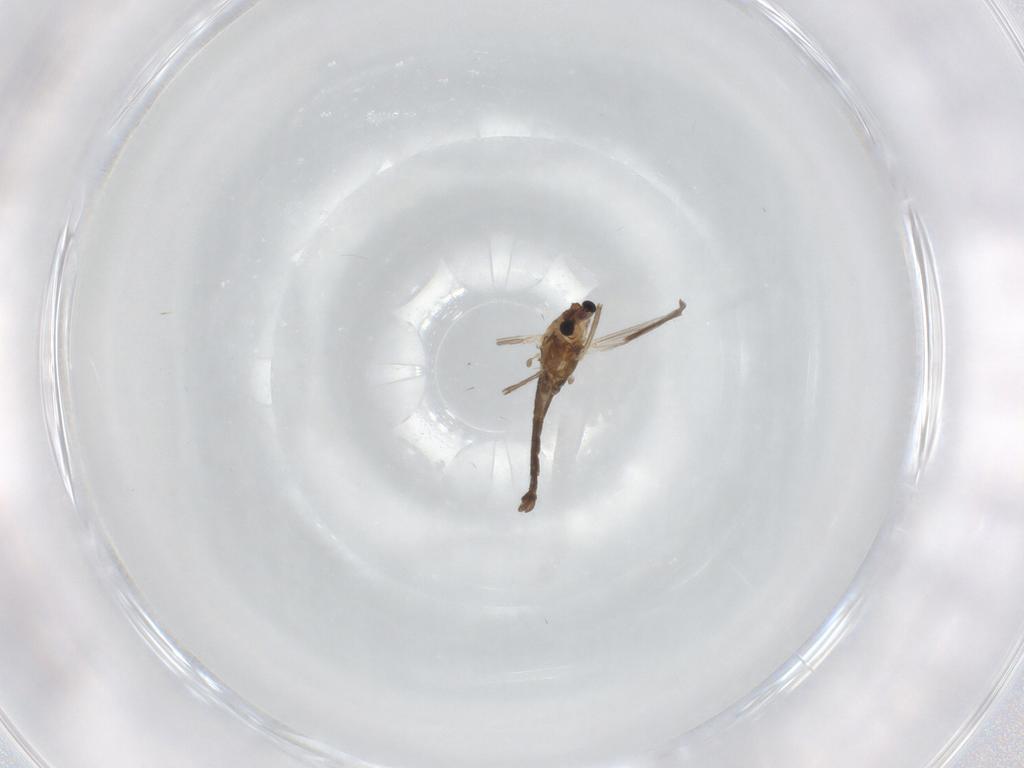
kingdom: Animalia
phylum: Arthropoda
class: Insecta
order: Diptera
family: Chironomidae
